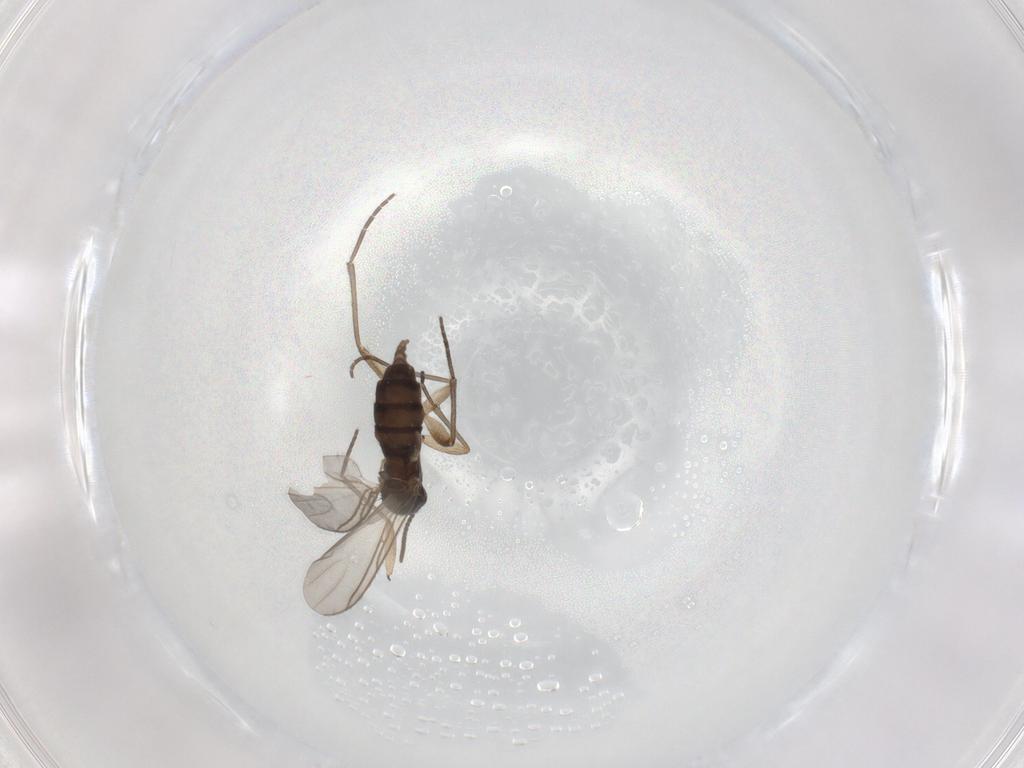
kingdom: Animalia
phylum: Arthropoda
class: Insecta
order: Diptera
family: Sciaridae
